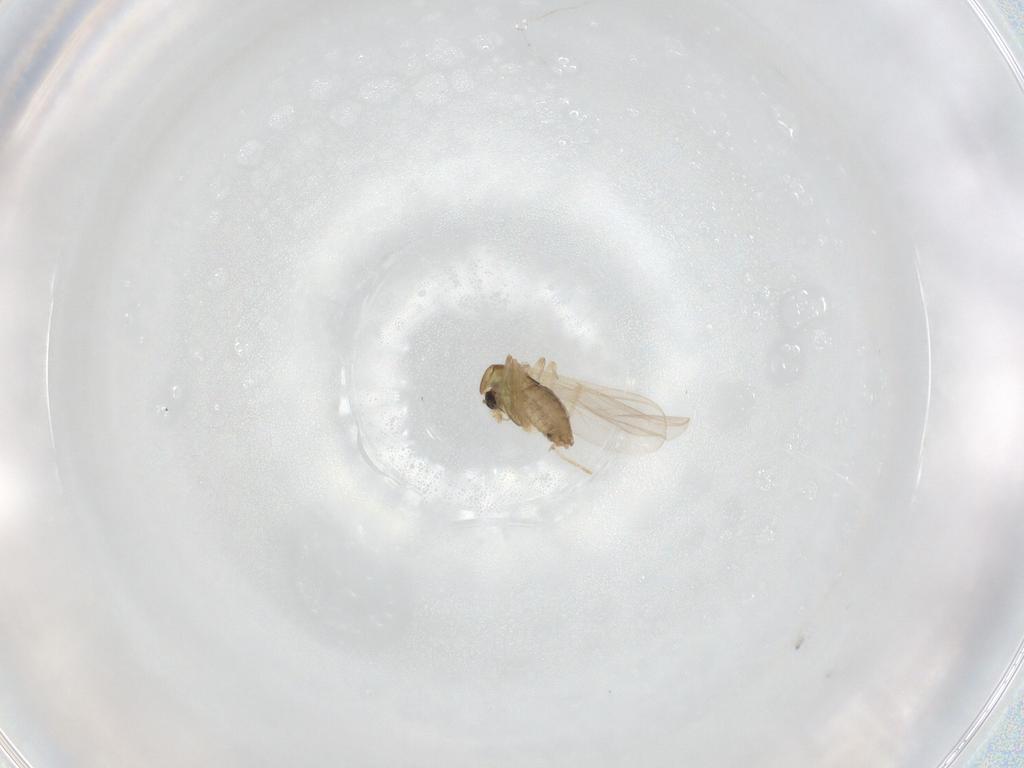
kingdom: Animalia
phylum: Arthropoda
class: Insecta
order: Diptera
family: Chironomidae
